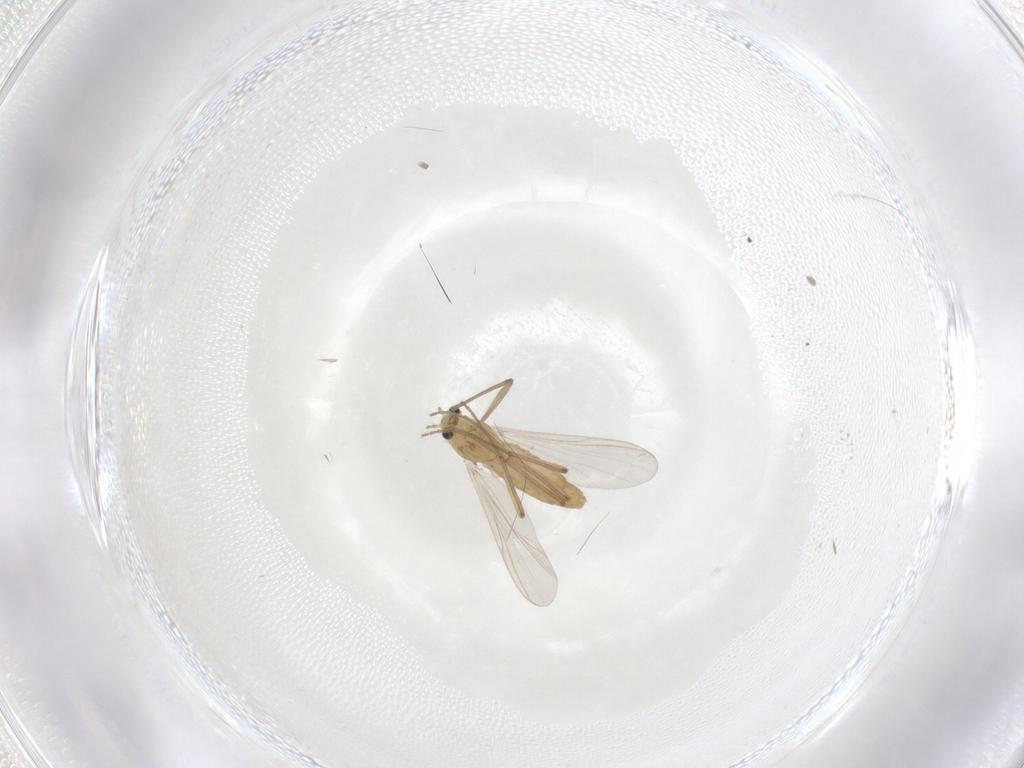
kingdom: Animalia
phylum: Arthropoda
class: Insecta
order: Diptera
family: Chironomidae
